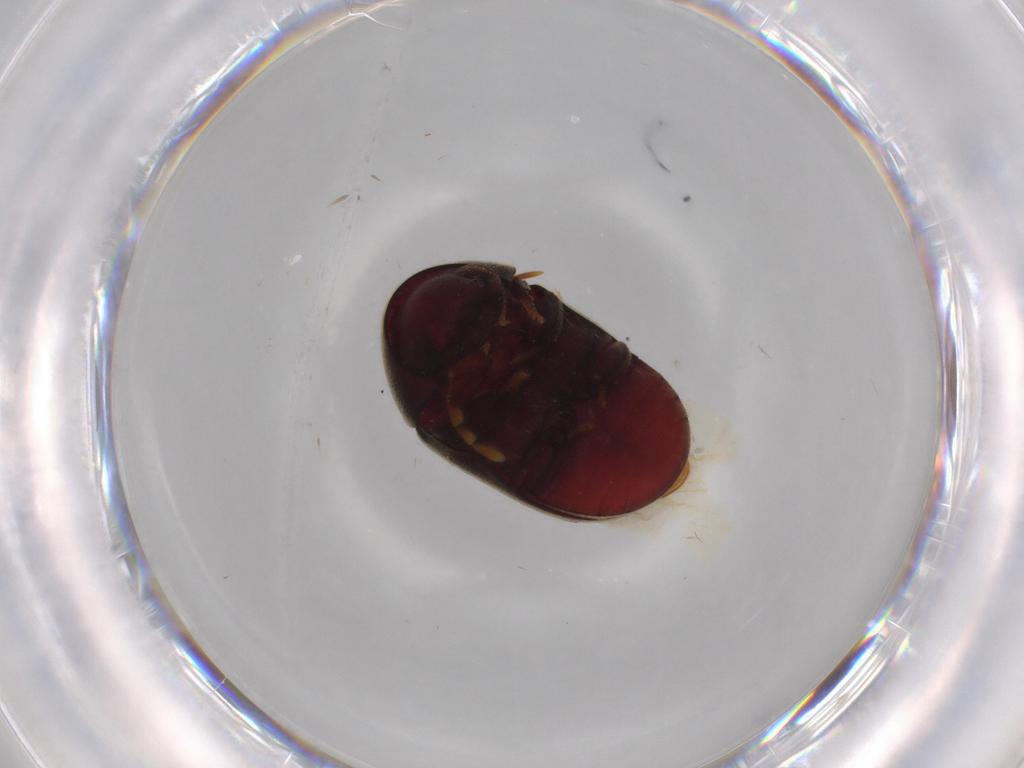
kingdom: Animalia
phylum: Arthropoda
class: Insecta
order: Coleoptera
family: Ptinidae
